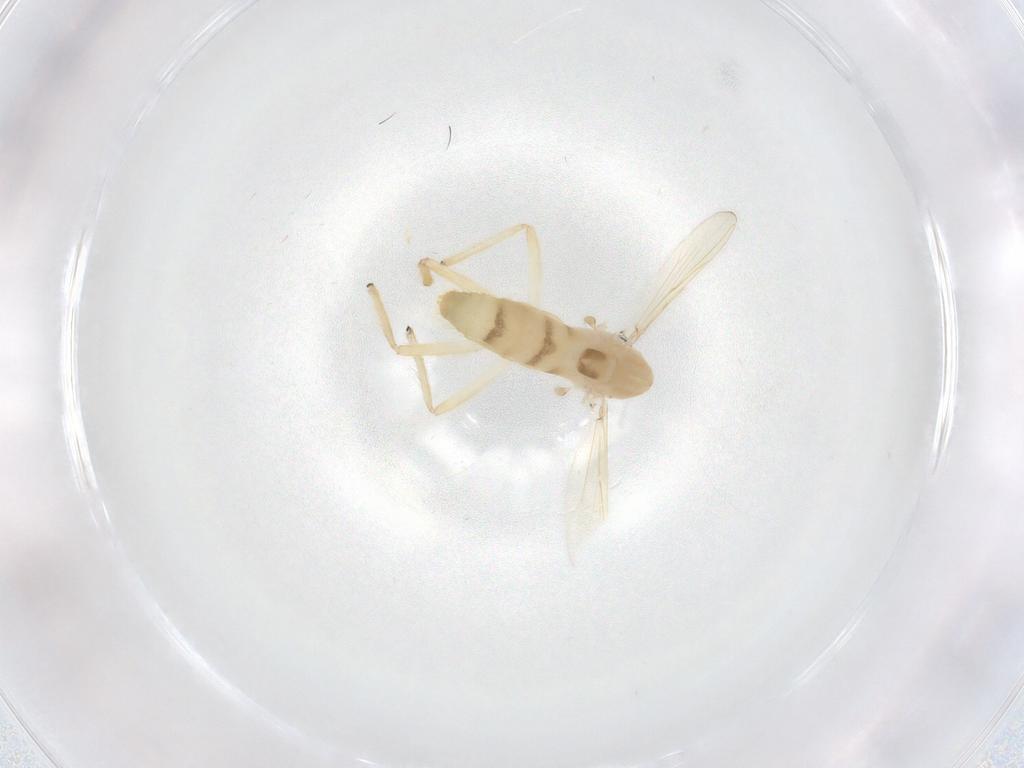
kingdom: Animalia
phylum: Arthropoda
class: Insecta
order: Diptera
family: Chironomidae
